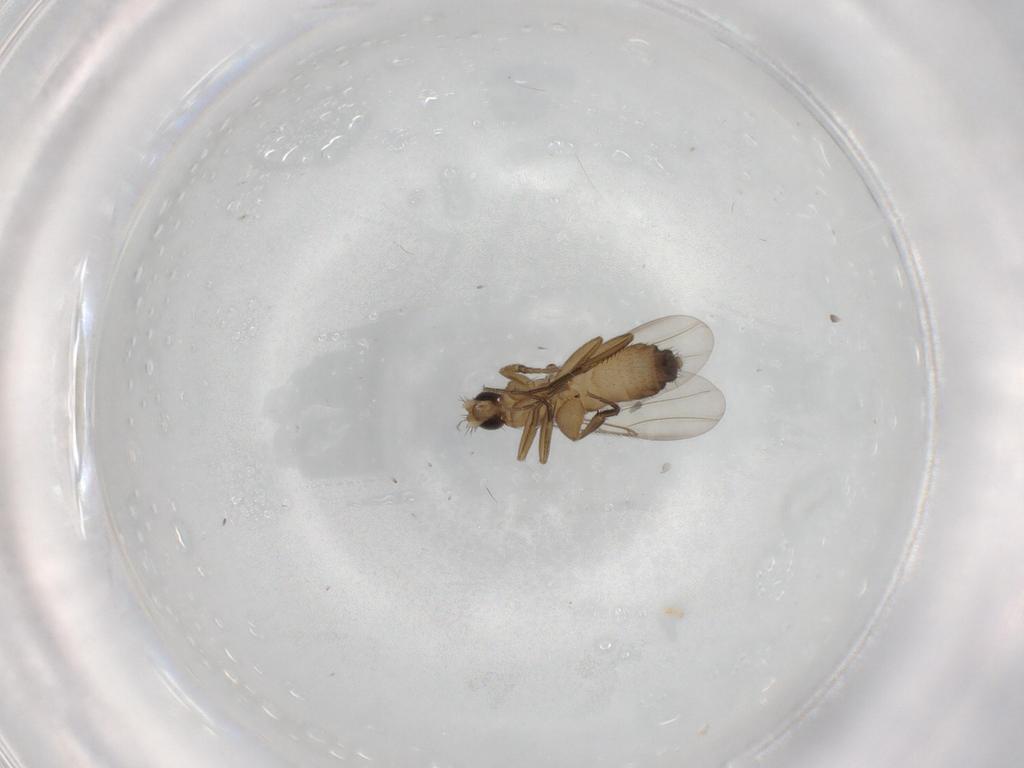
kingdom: Animalia
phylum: Arthropoda
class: Insecta
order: Diptera
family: Phoridae
